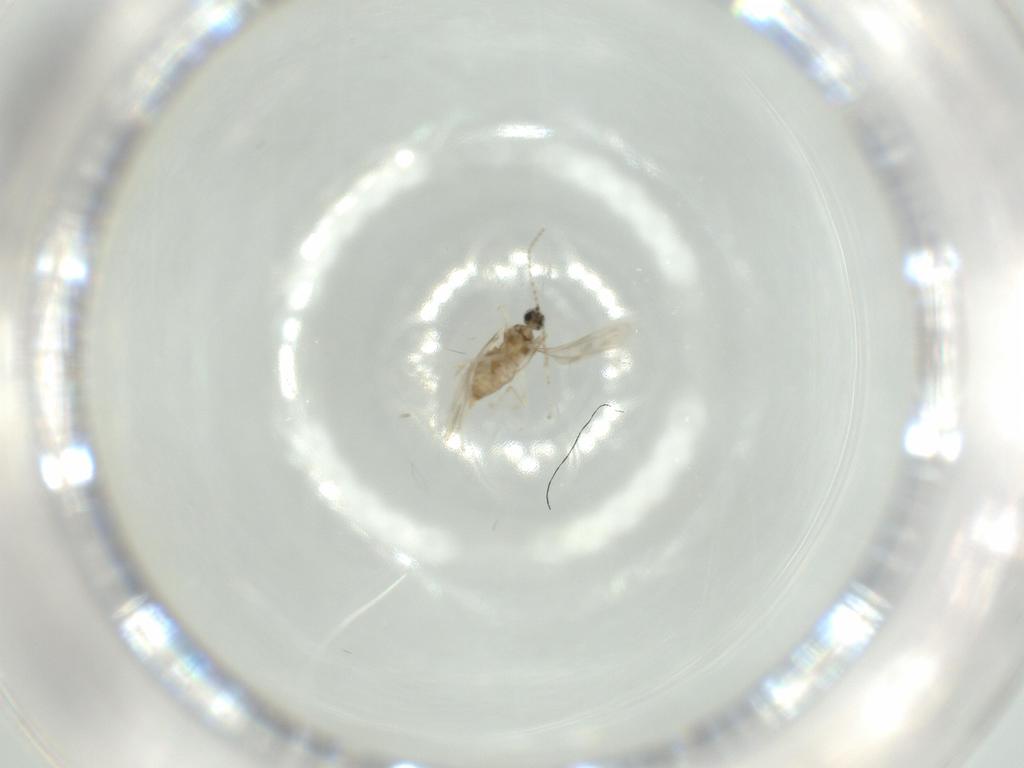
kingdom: Animalia
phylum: Arthropoda
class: Insecta
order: Diptera
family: Cecidomyiidae
